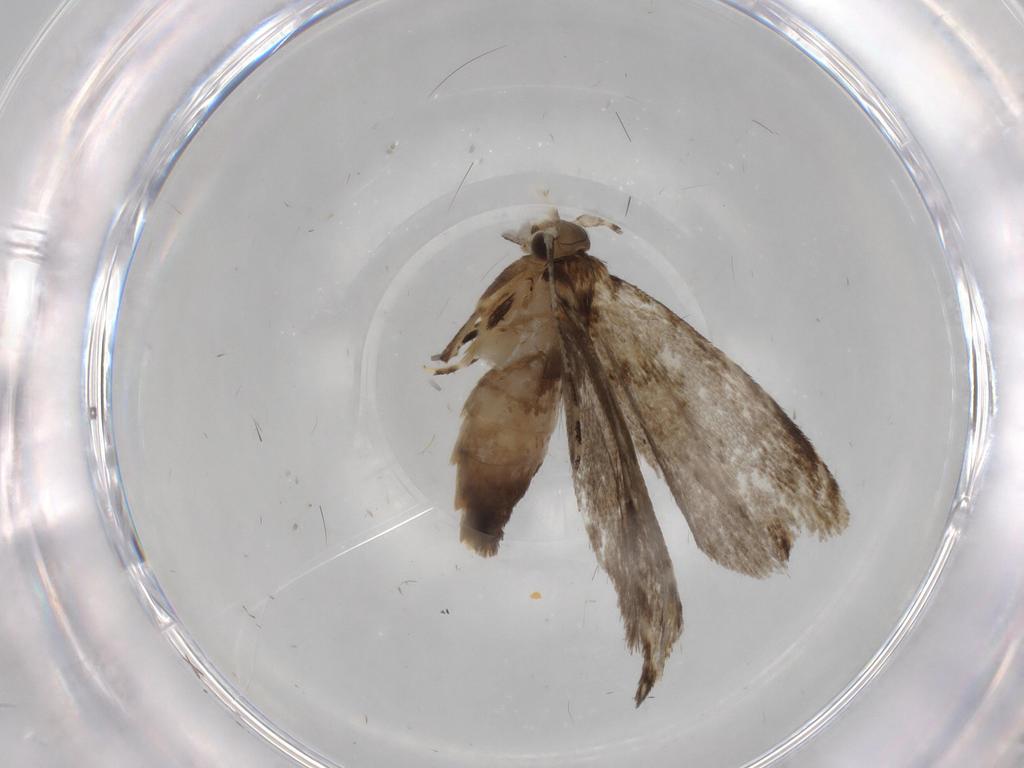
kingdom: Animalia
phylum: Arthropoda
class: Insecta
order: Lepidoptera
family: Tineidae
